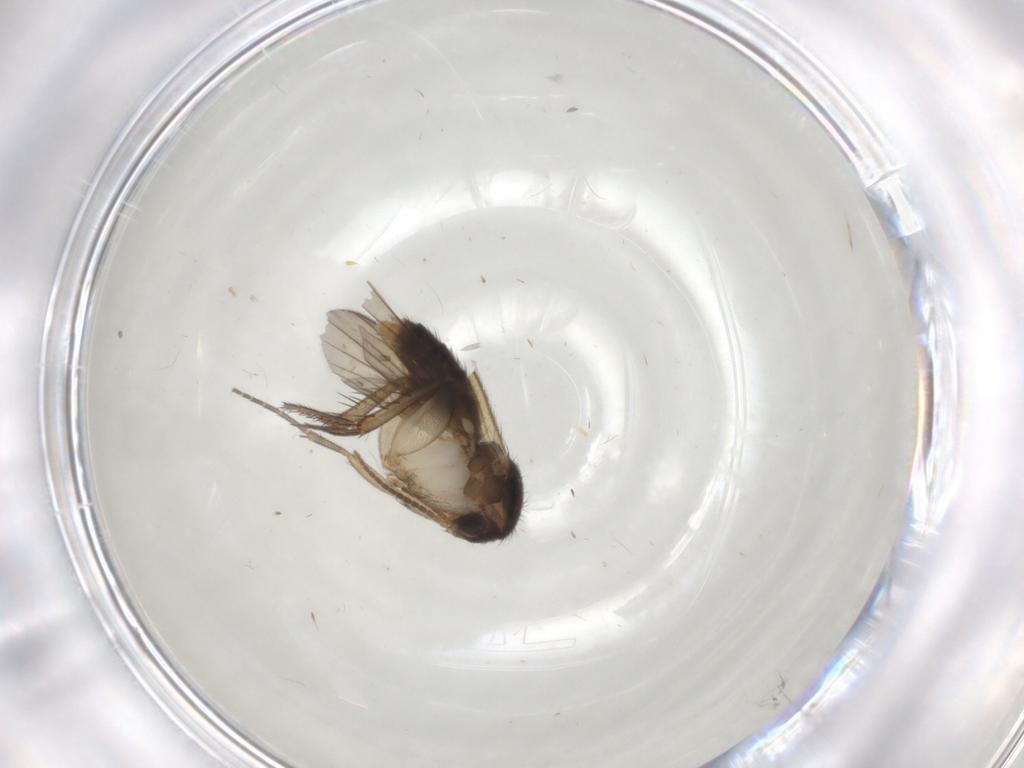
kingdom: Animalia
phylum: Arthropoda
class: Insecta
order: Diptera
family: Mycetophilidae
